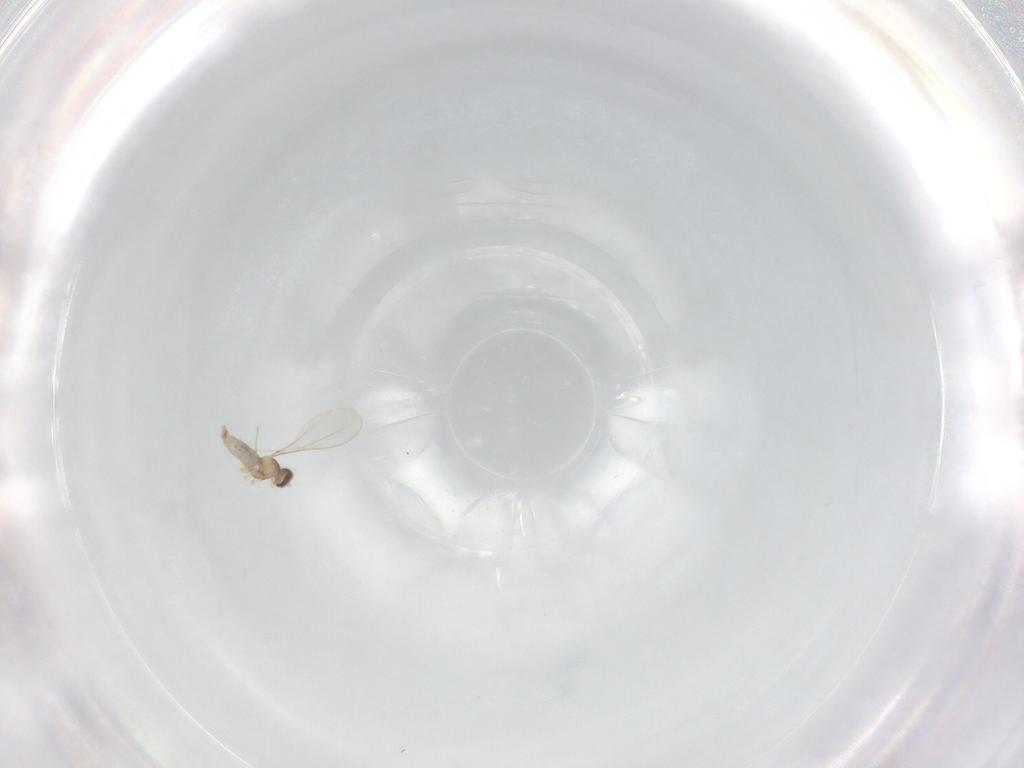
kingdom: Animalia
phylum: Arthropoda
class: Insecta
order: Diptera
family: Cecidomyiidae
